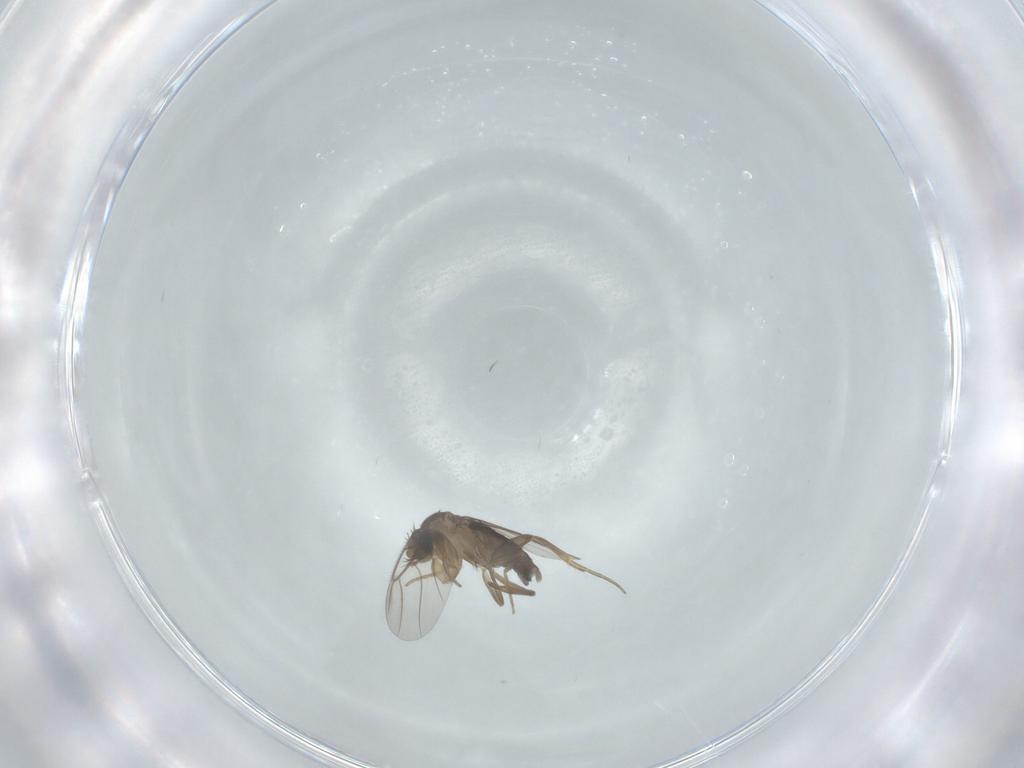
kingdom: Animalia
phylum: Arthropoda
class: Insecta
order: Diptera
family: Phoridae
